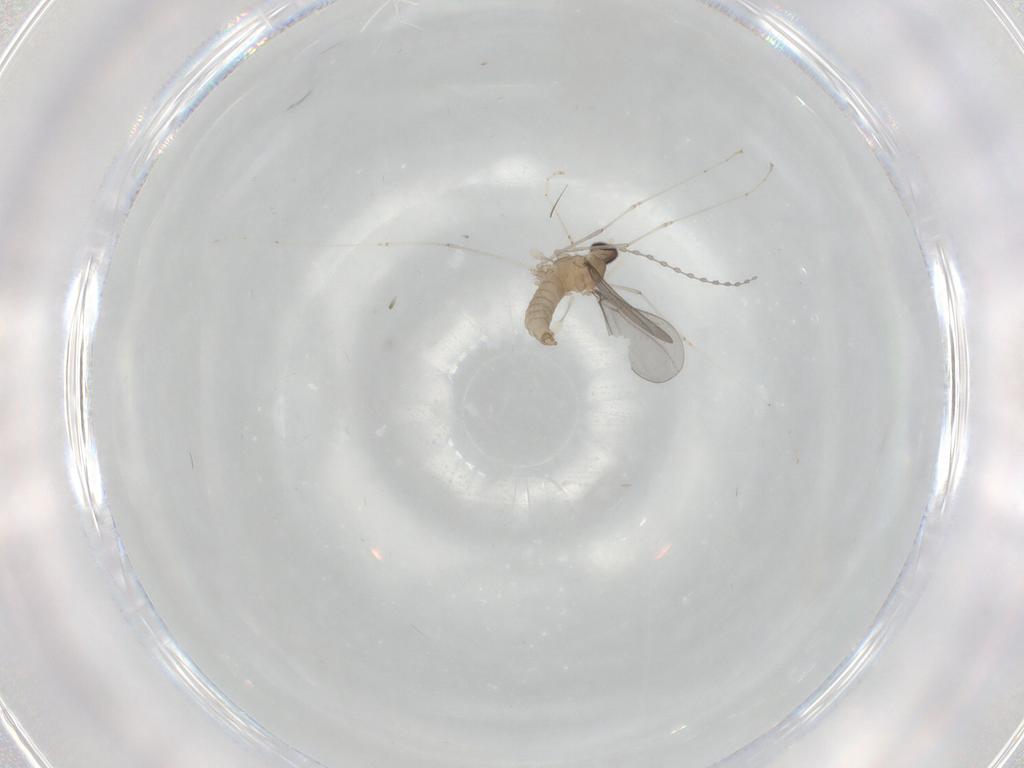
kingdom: Animalia
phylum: Arthropoda
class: Insecta
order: Diptera
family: Cecidomyiidae
